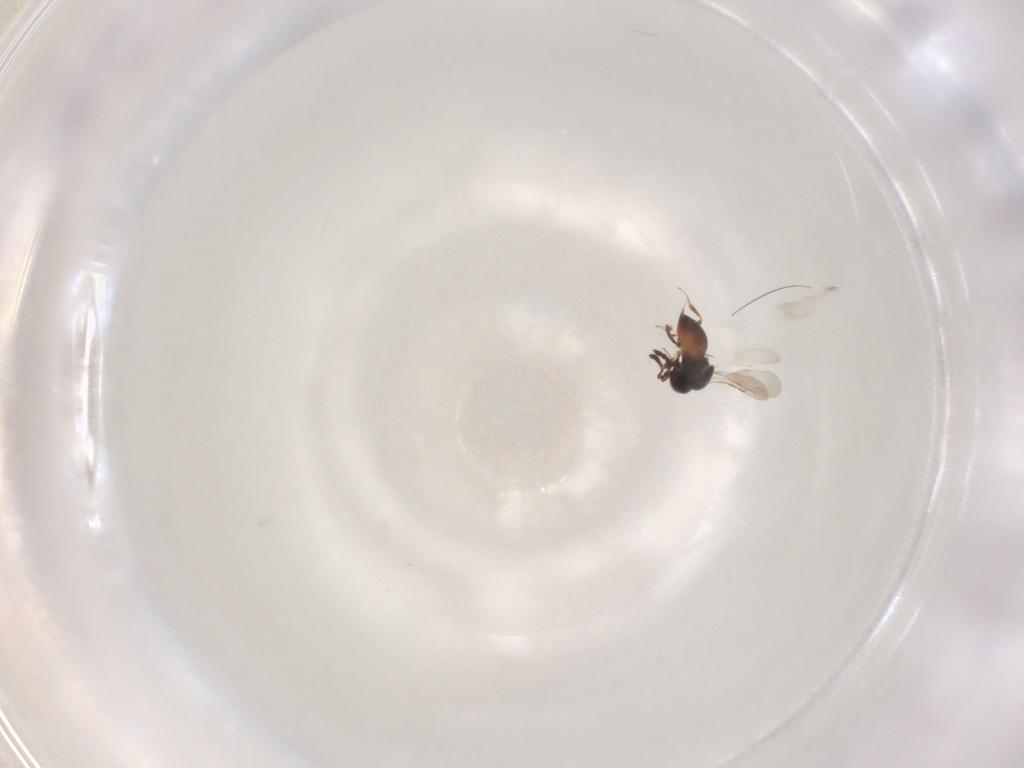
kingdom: Animalia
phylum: Arthropoda
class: Insecta
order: Hymenoptera
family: Ceraphronidae
